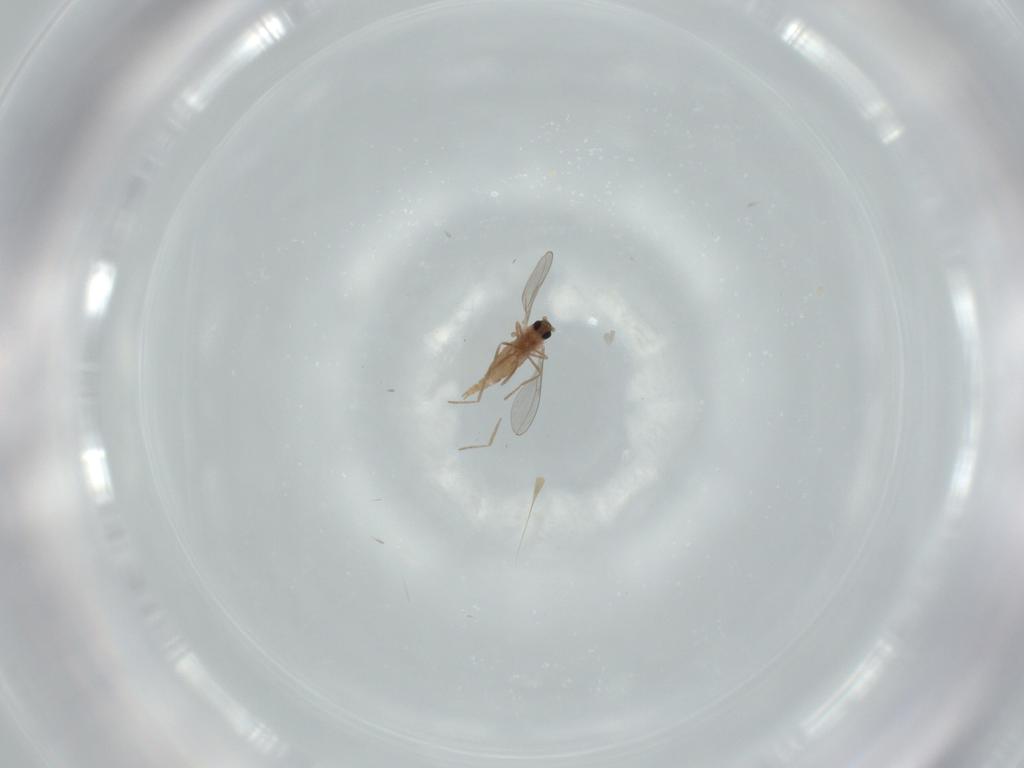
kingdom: Animalia
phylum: Arthropoda
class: Insecta
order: Diptera
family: Cecidomyiidae
